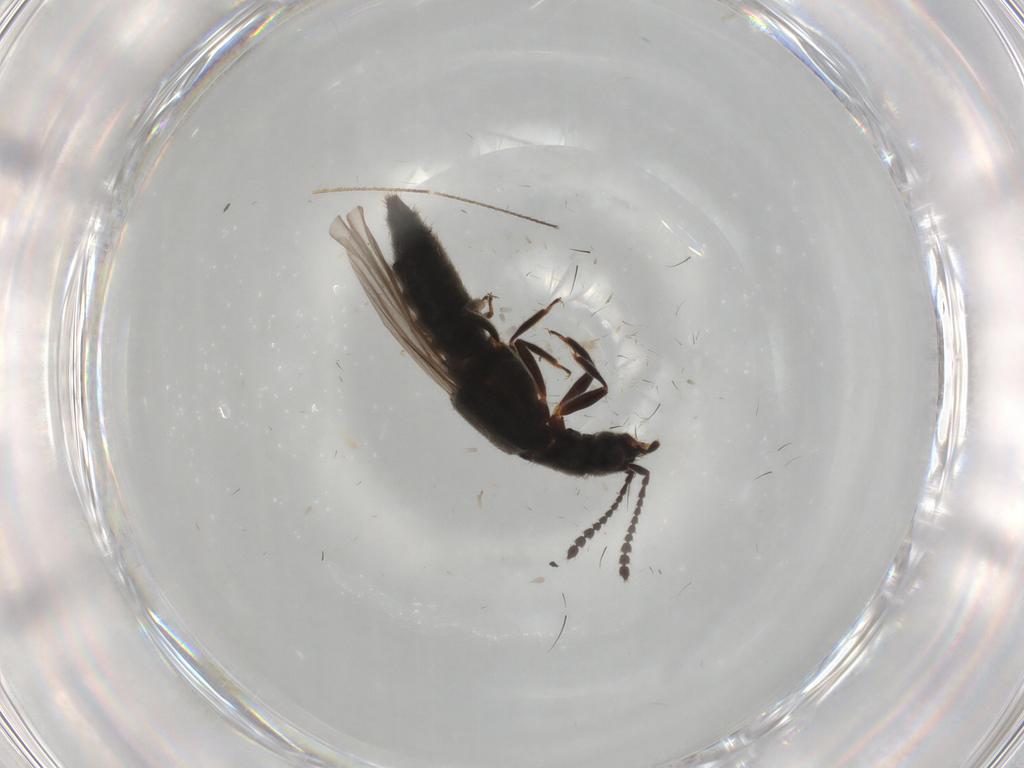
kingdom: Animalia
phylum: Arthropoda
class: Insecta
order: Coleoptera
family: Staphylinidae
